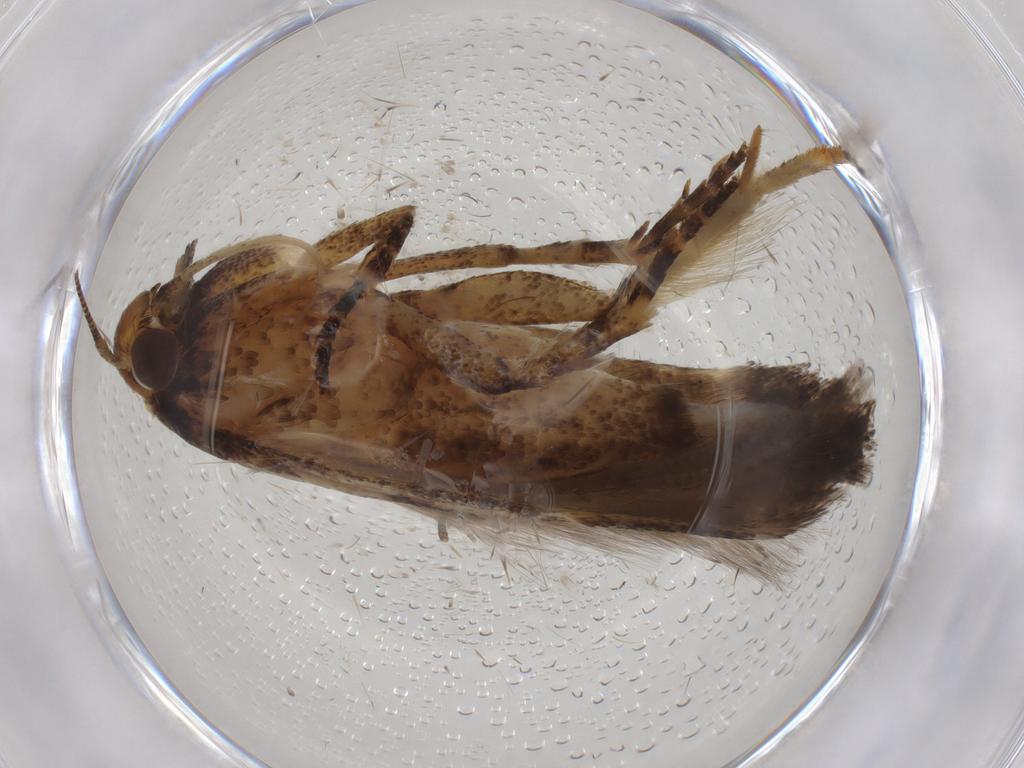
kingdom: Animalia
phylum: Arthropoda
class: Insecta
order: Lepidoptera
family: Gelechiidae
